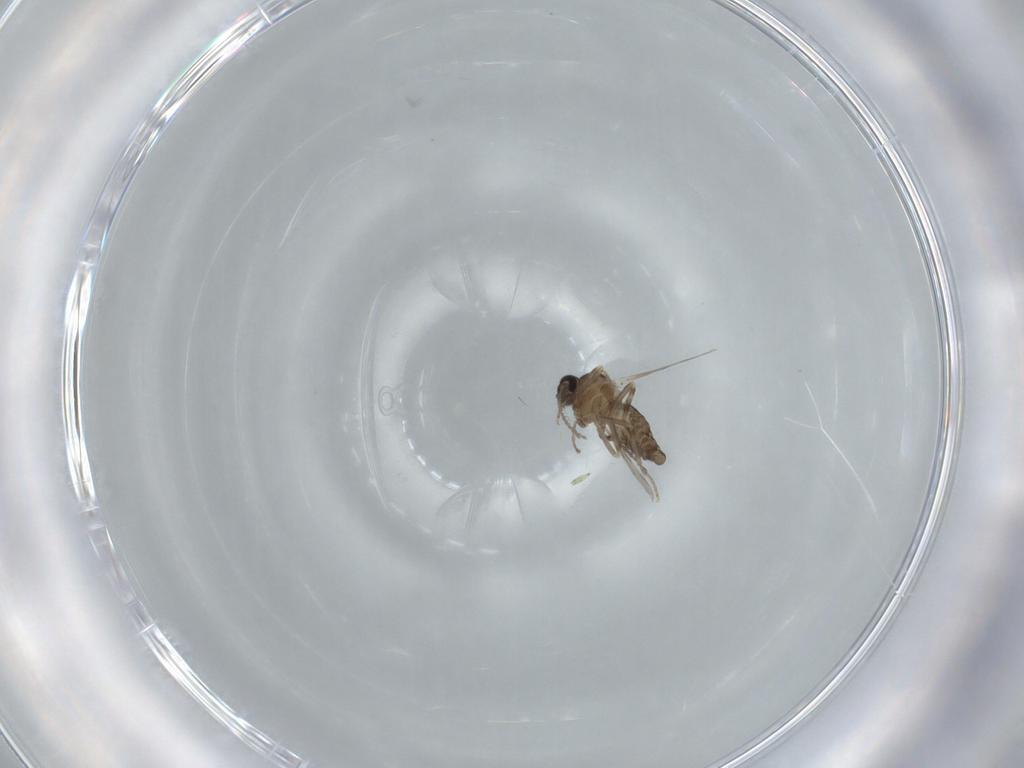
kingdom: Animalia
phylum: Arthropoda
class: Insecta
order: Diptera
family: Ceratopogonidae
